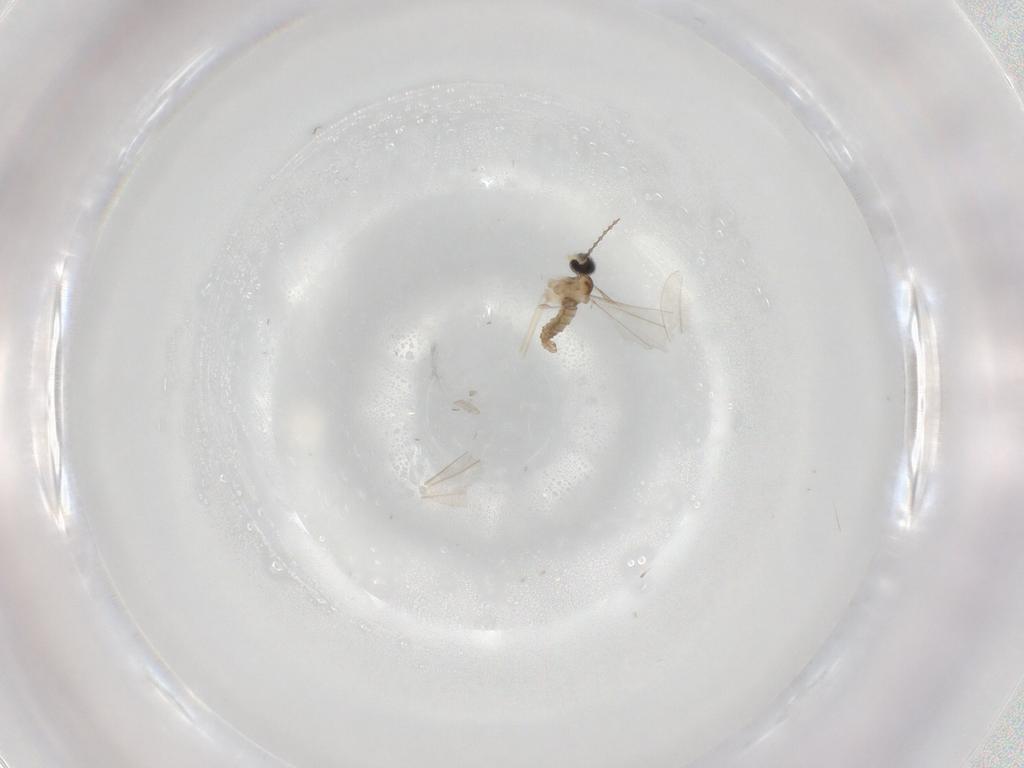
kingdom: Animalia
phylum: Arthropoda
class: Insecta
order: Diptera
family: Cecidomyiidae
